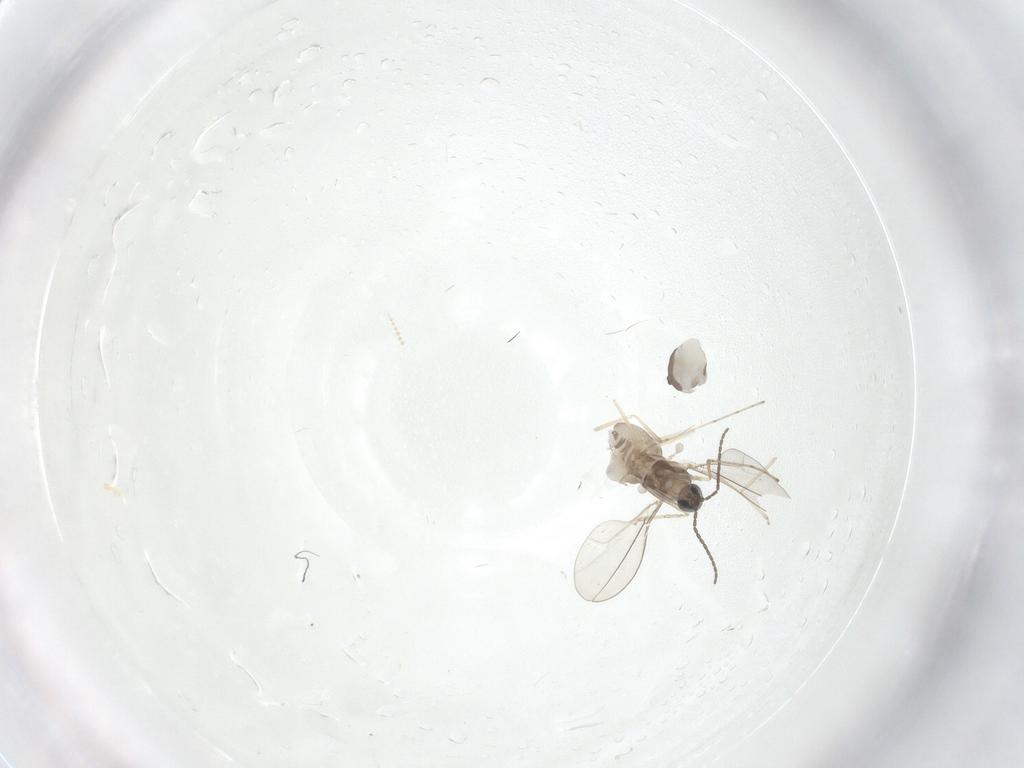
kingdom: Animalia
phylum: Arthropoda
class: Insecta
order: Diptera
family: Cecidomyiidae
